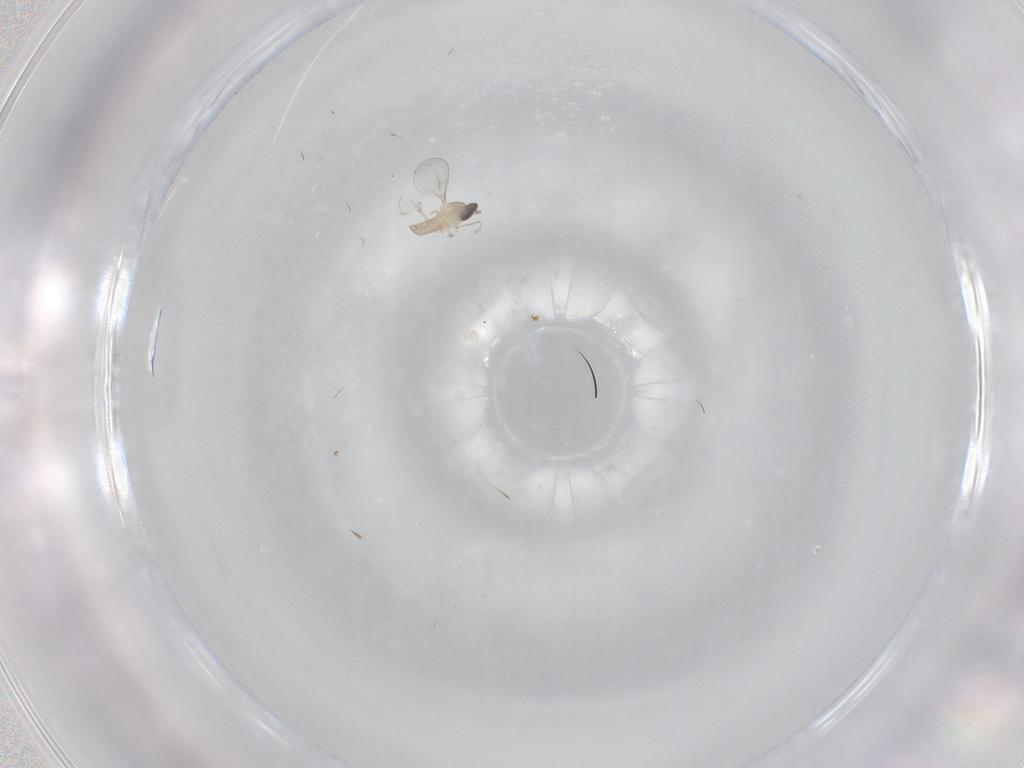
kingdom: Animalia
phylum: Arthropoda
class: Insecta
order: Diptera
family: Cecidomyiidae
